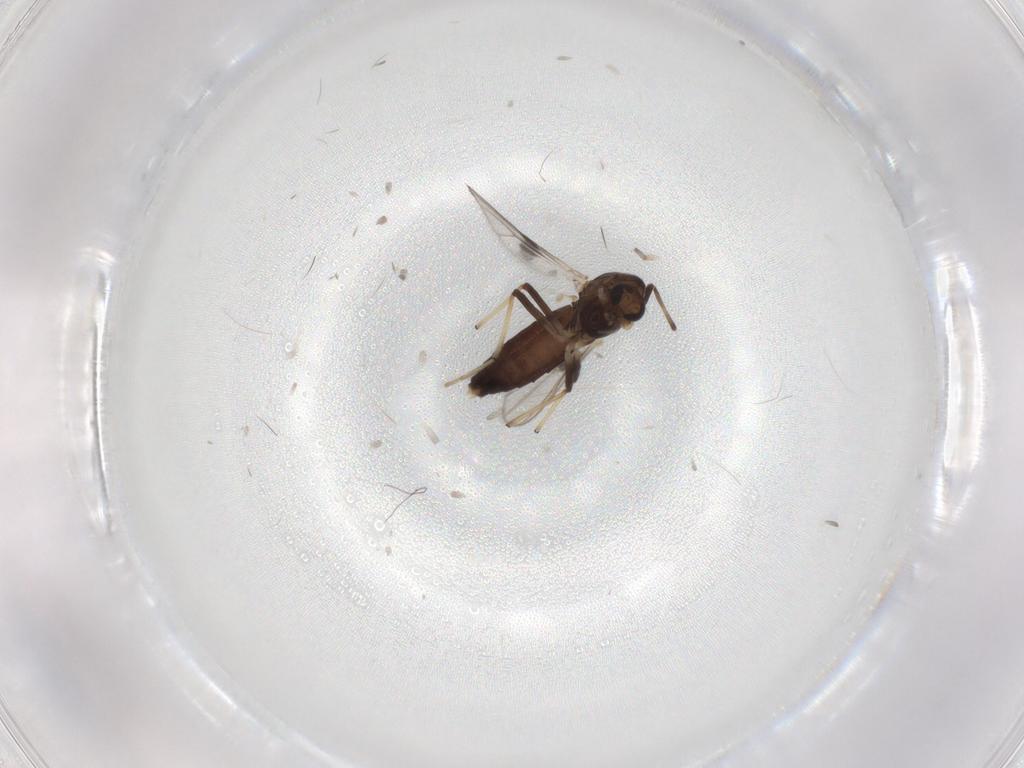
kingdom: Animalia
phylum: Arthropoda
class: Insecta
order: Diptera
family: Chironomidae
